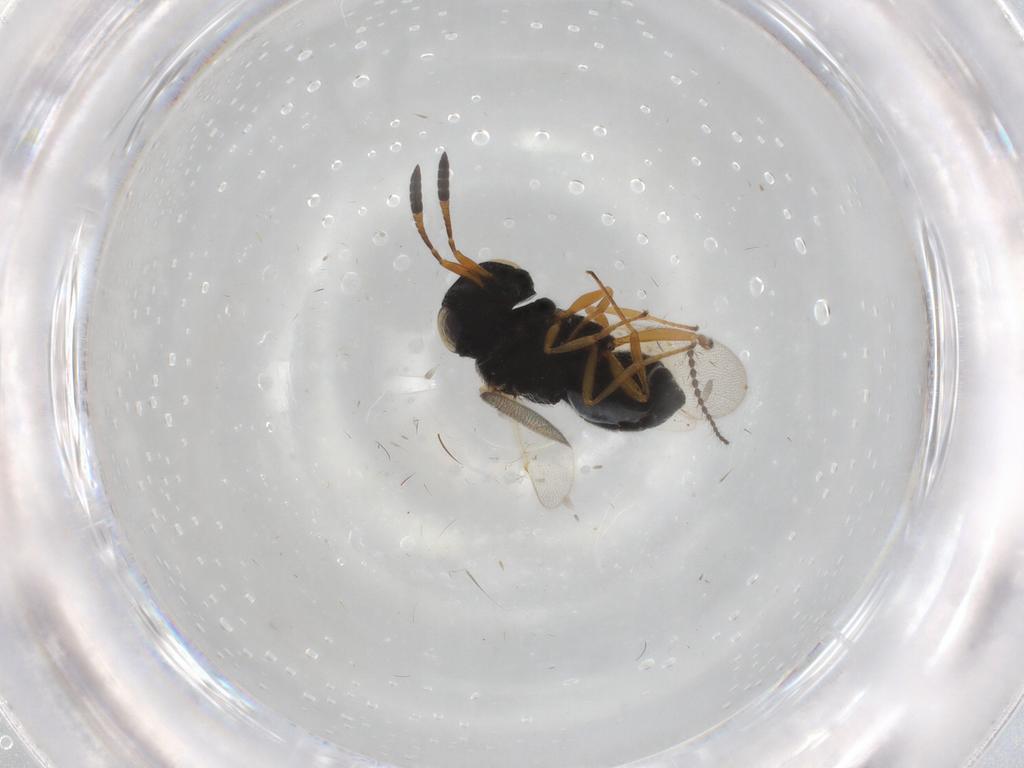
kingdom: Animalia
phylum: Arthropoda
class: Insecta
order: Hymenoptera
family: Scelionidae
